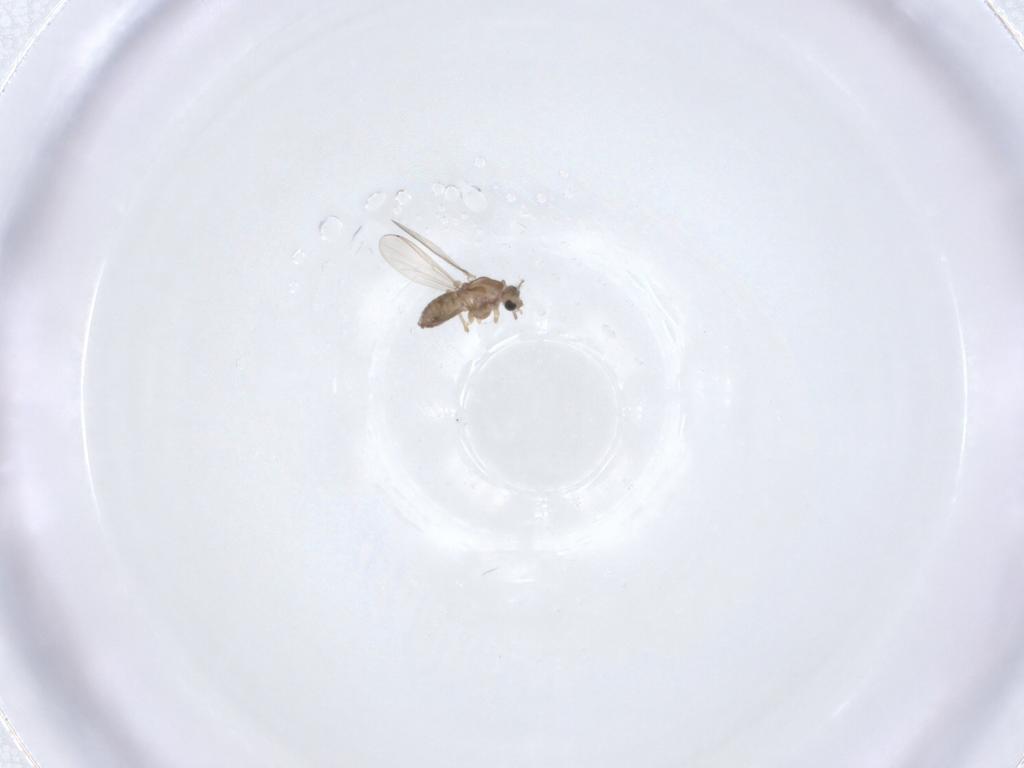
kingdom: Animalia
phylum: Arthropoda
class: Insecta
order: Diptera
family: Chironomidae
